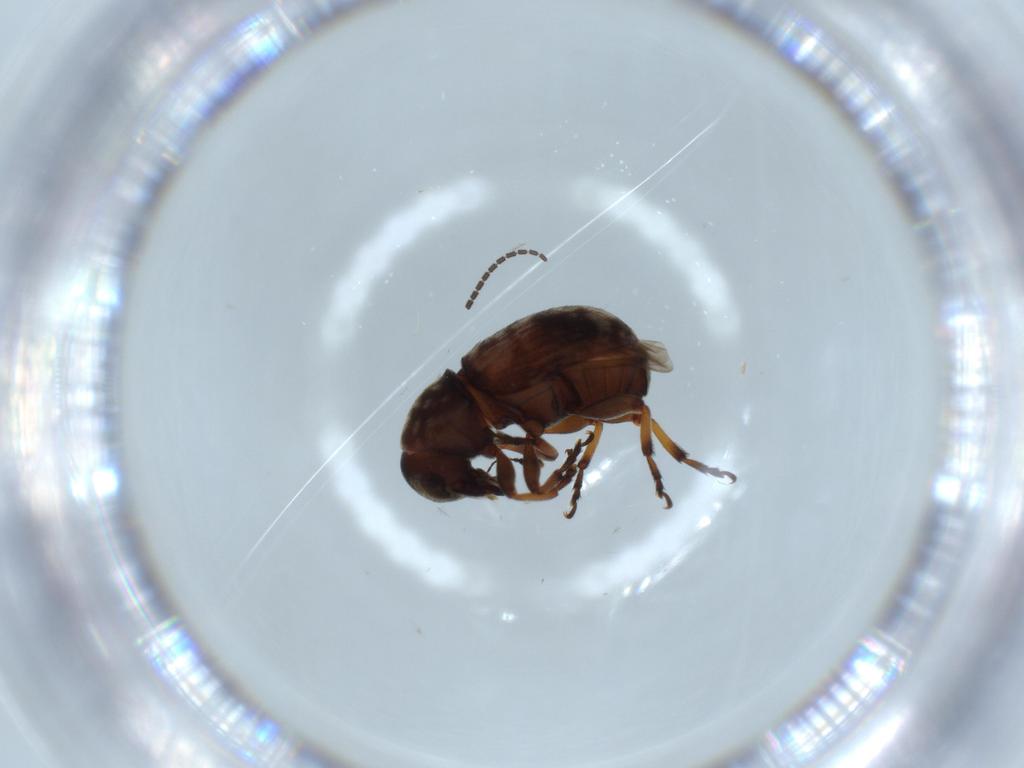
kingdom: Animalia
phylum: Arthropoda
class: Insecta
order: Coleoptera
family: Anthribidae
